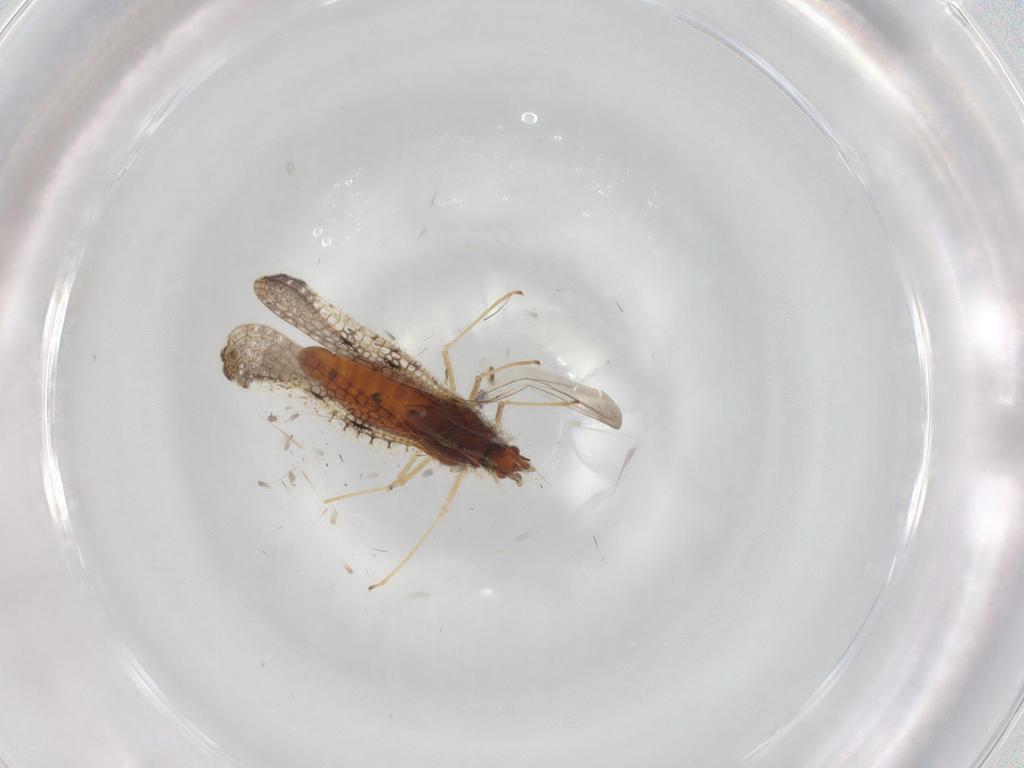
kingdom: Animalia
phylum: Arthropoda
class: Insecta
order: Hemiptera
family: Tingidae
